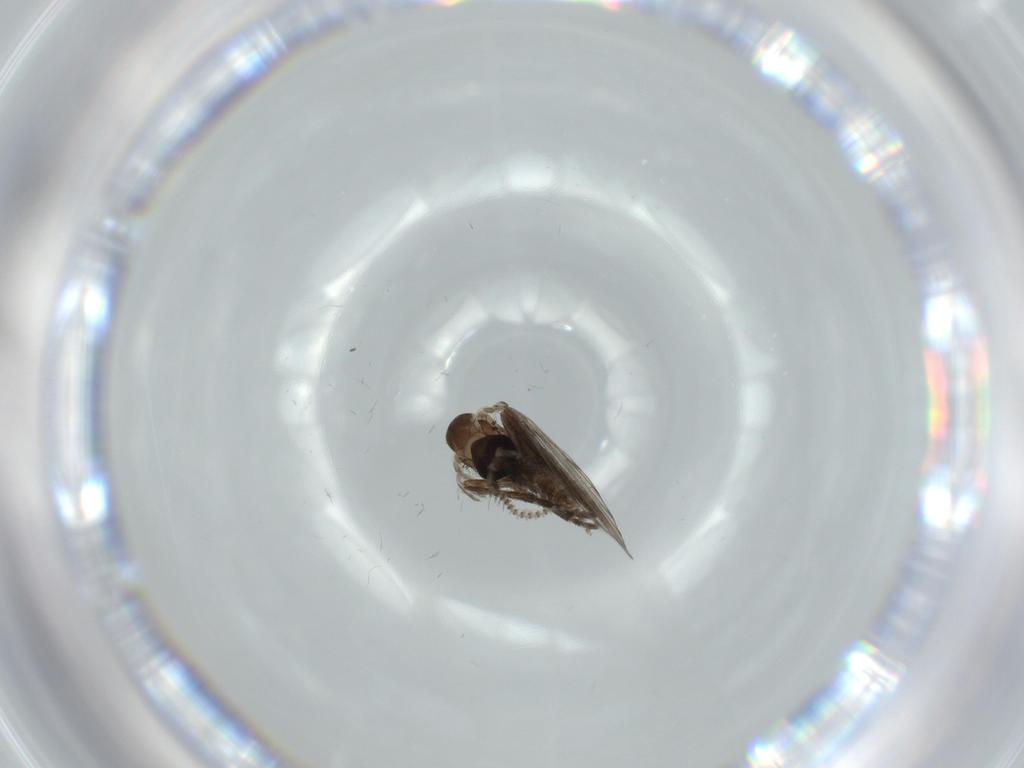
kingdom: Animalia
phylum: Arthropoda
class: Insecta
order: Diptera
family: Psychodidae
